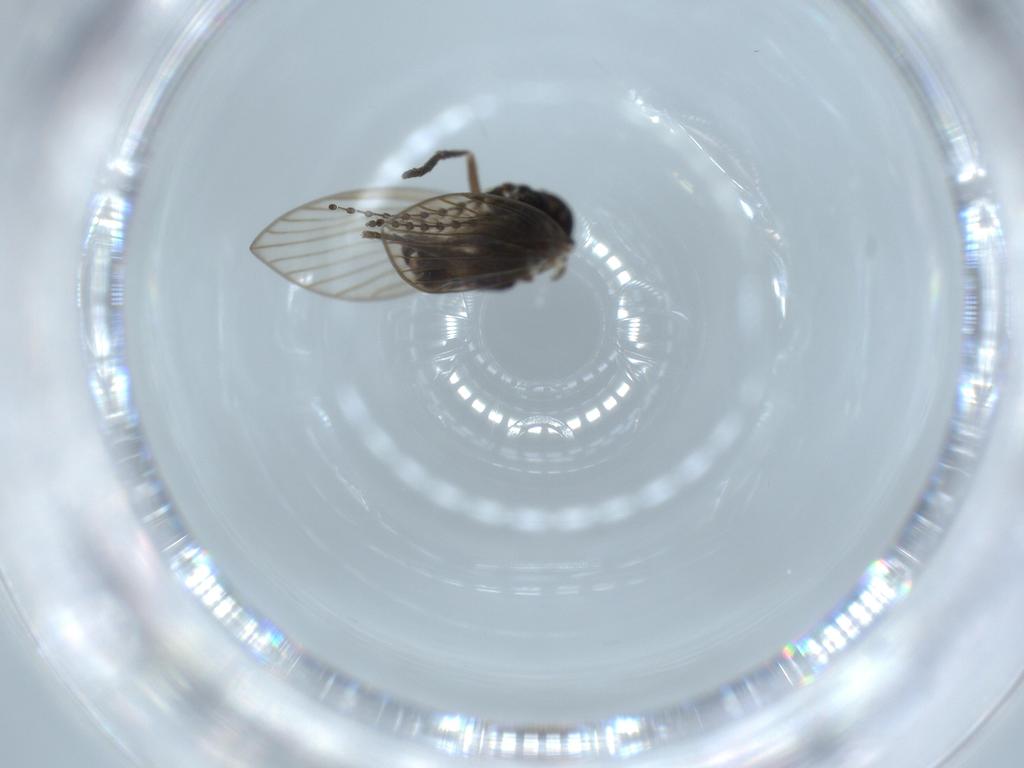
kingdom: Animalia
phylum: Arthropoda
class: Insecta
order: Diptera
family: Psychodidae
